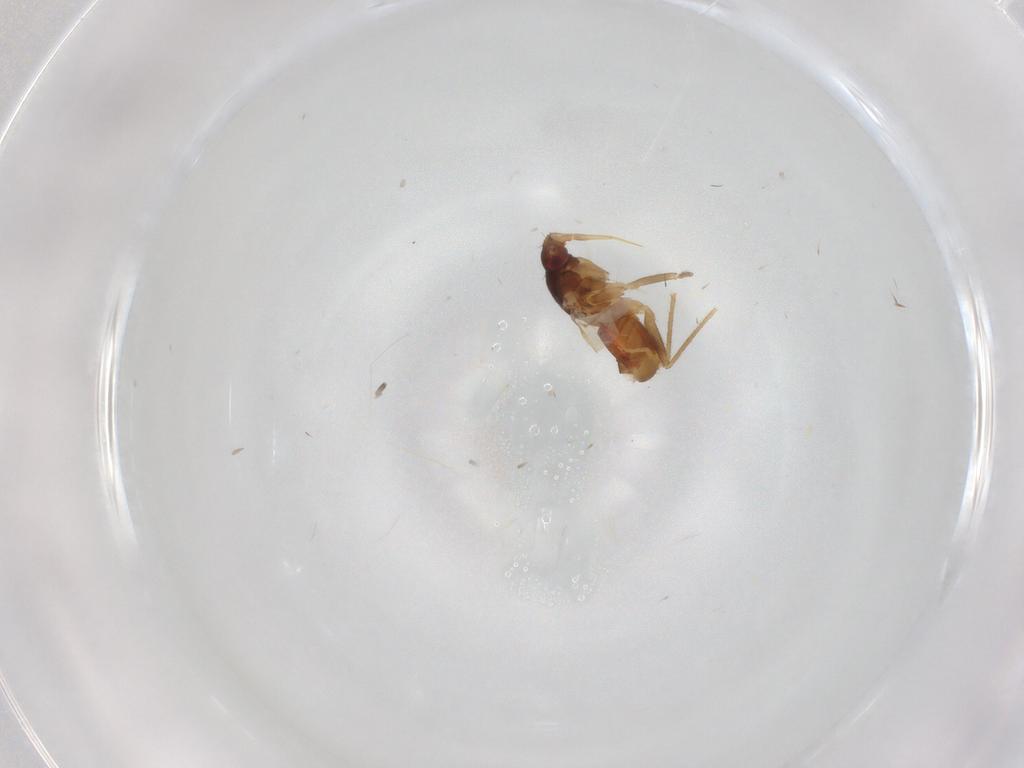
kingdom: Animalia
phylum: Arthropoda
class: Insecta
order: Hemiptera
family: Ceratocombidae
